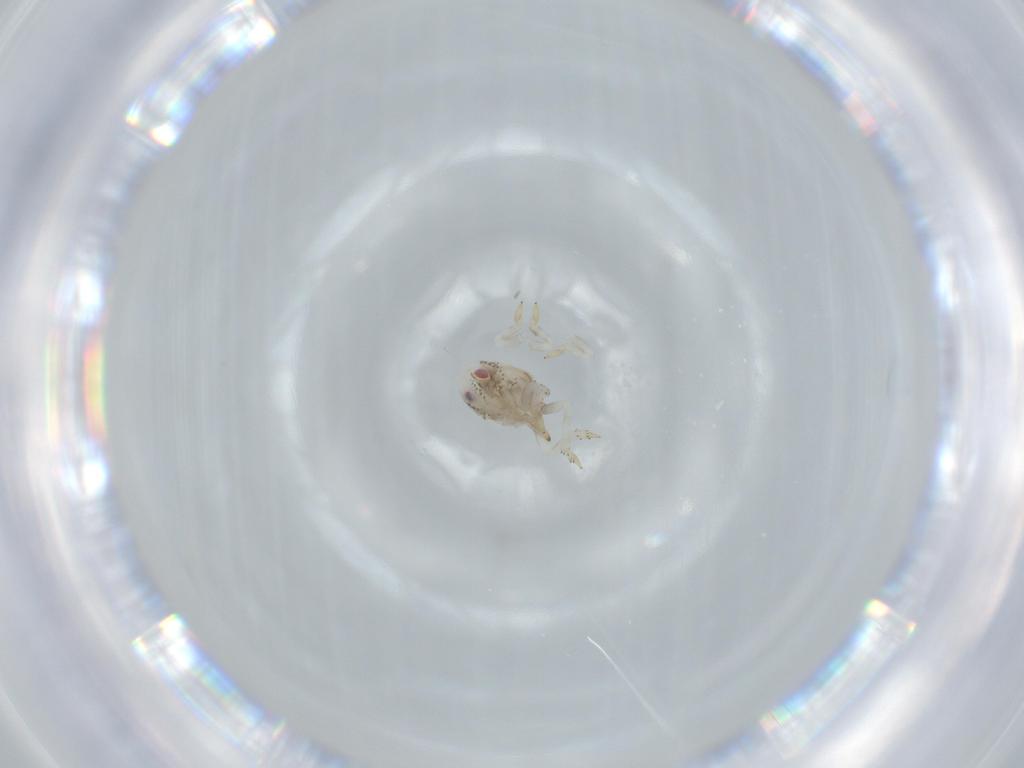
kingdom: Animalia
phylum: Arthropoda
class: Insecta
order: Hemiptera
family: Acanaloniidae
